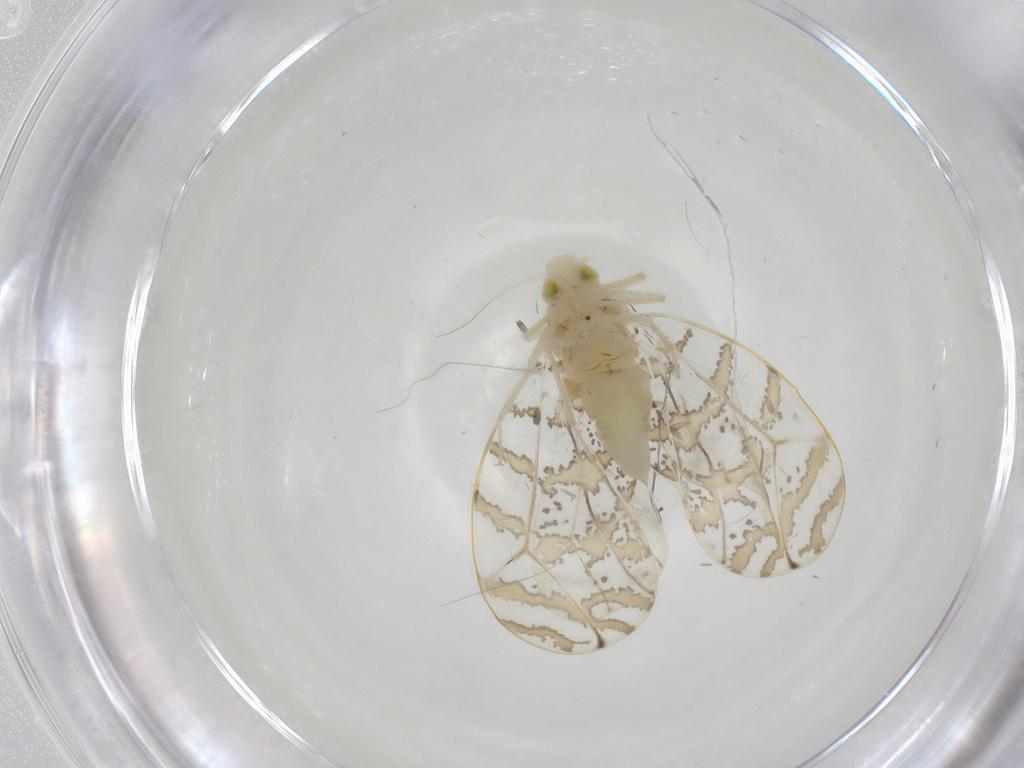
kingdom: Animalia
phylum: Arthropoda
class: Insecta
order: Hemiptera
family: Aleyrodidae
